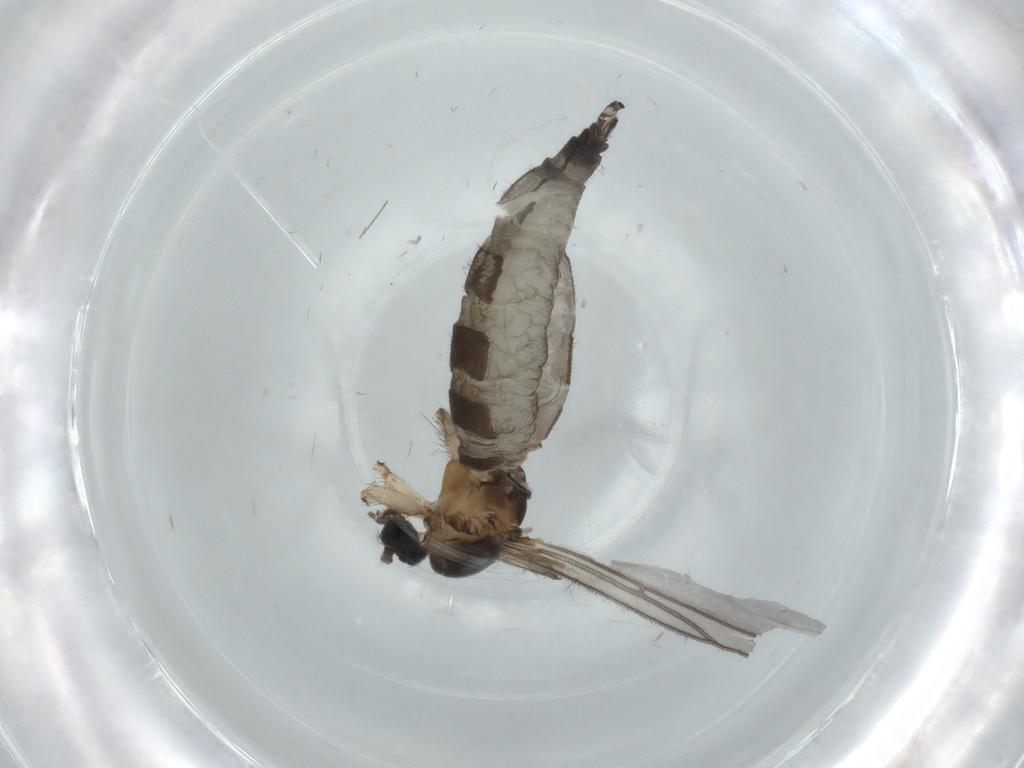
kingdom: Animalia
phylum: Arthropoda
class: Insecta
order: Diptera
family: Sciaridae
